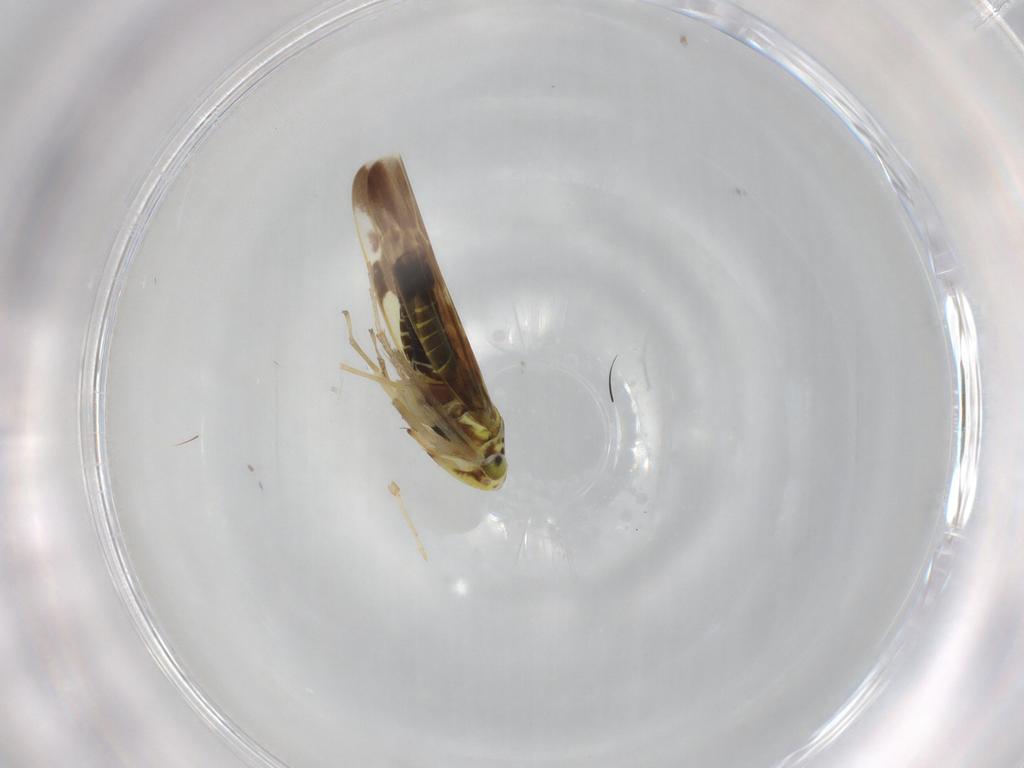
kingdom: Animalia
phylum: Arthropoda
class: Insecta
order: Hemiptera
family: Cicadellidae
